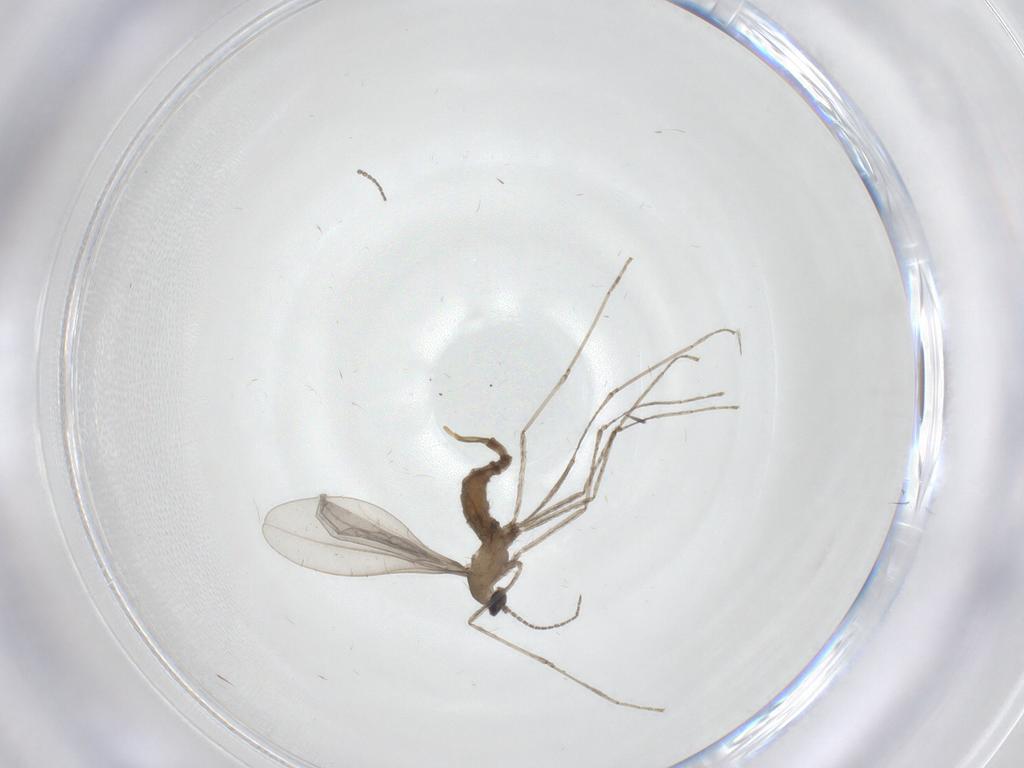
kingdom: Animalia
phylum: Arthropoda
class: Insecta
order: Diptera
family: Cecidomyiidae
